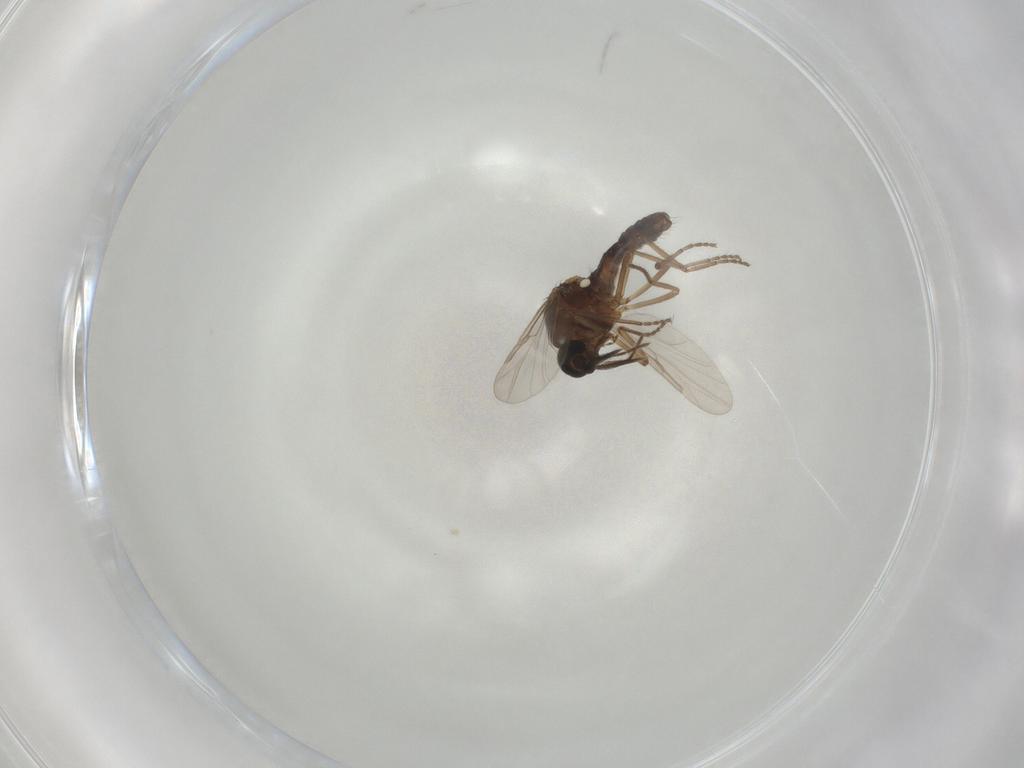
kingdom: Animalia
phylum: Arthropoda
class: Insecta
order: Diptera
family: Ceratopogonidae
